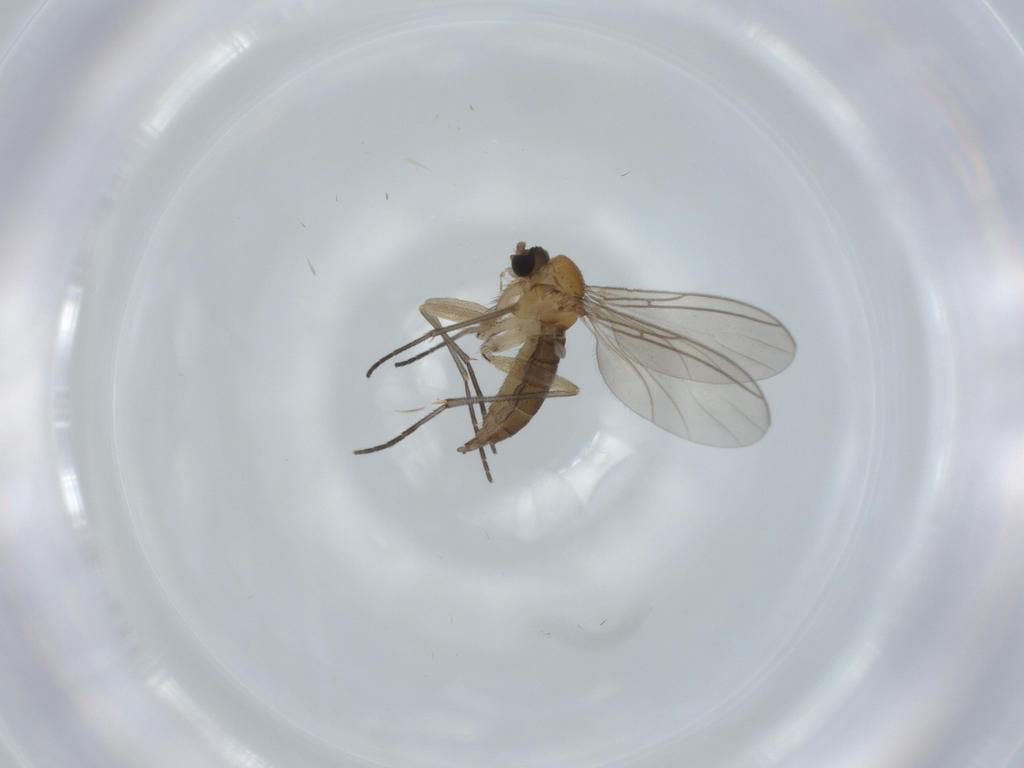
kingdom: Animalia
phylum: Arthropoda
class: Insecta
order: Diptera
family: Sciaridae
